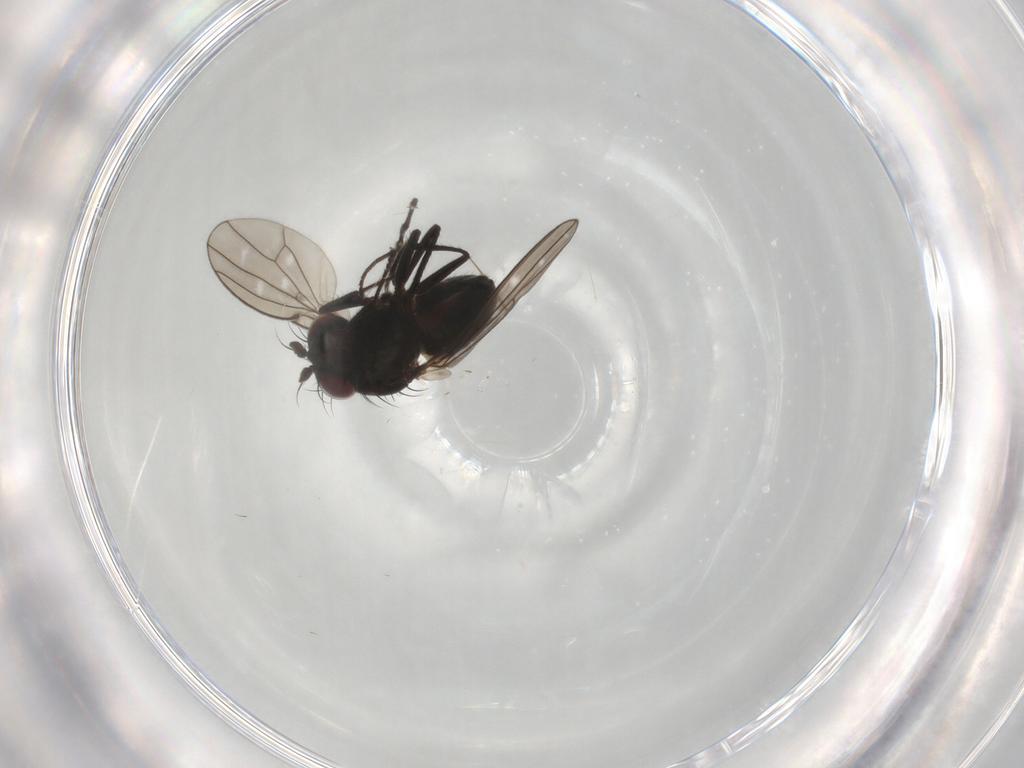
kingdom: Animalia
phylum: Arthropoda
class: Insecta
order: Diptera
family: Ephydridae
